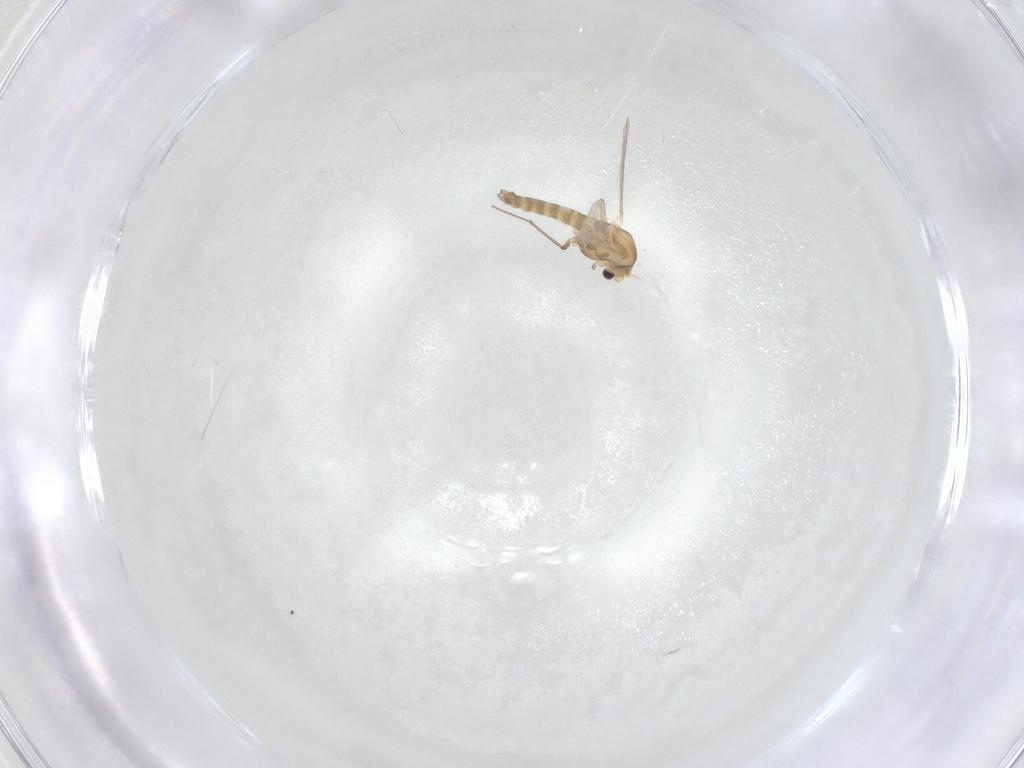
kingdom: Animalia
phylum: Arthropoda
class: Insecta
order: Diptera
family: Chironomidae
